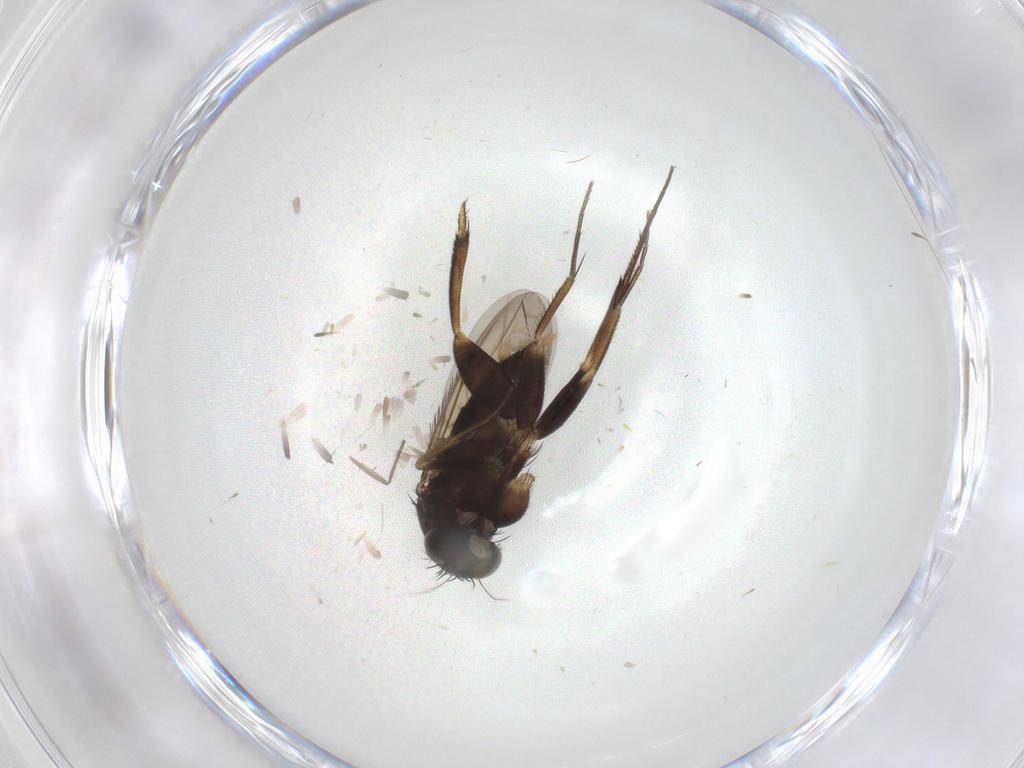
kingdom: Animalia
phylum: Arthropoda
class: Insecta
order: Diptera
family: Phoridae
